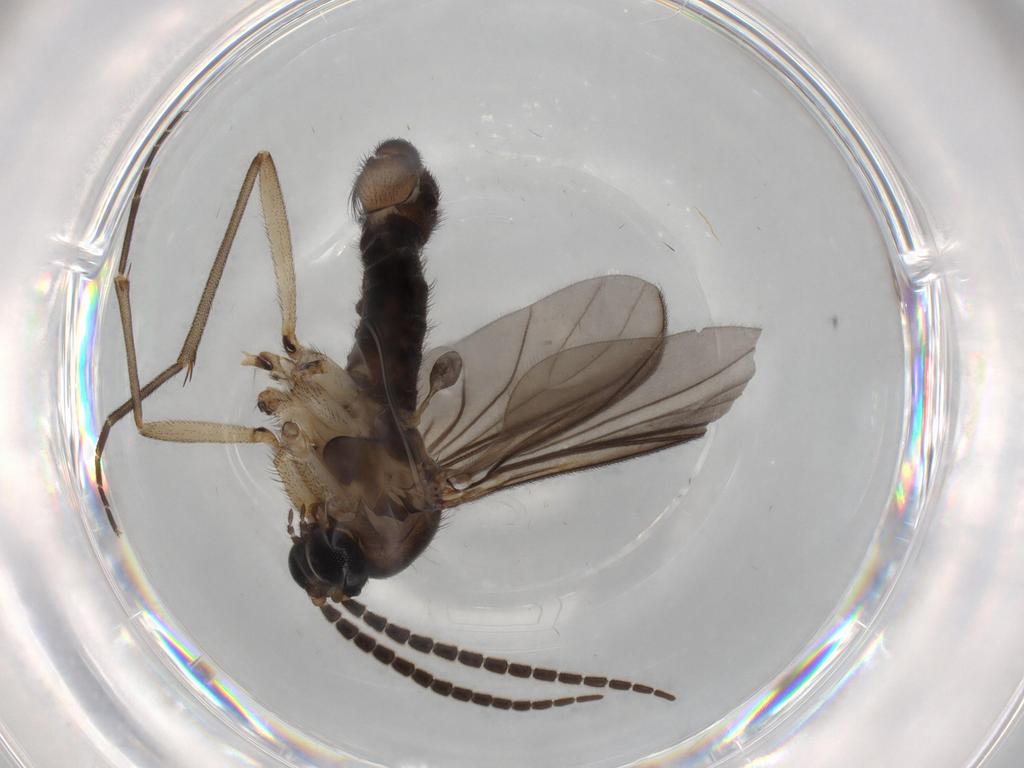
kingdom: Animalia
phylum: Arthropoda
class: Insecta
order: Diptera
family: Sciaridae
